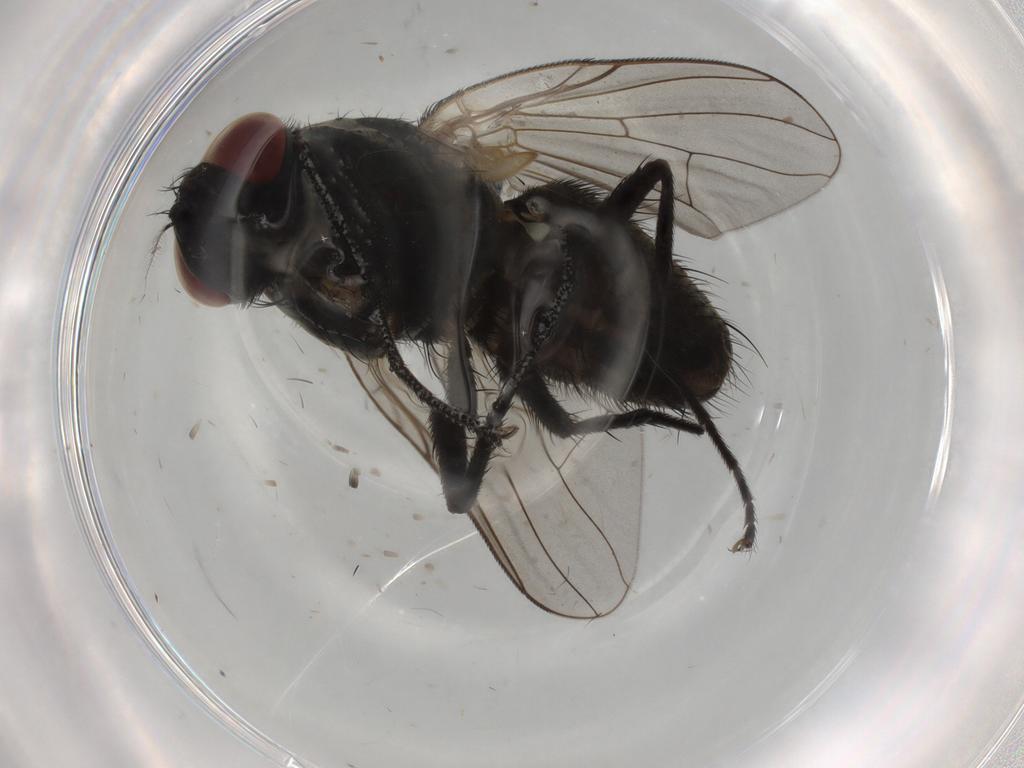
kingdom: Animalia
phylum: Arthropoda
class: Insecta
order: Diptera
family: Muscidae
